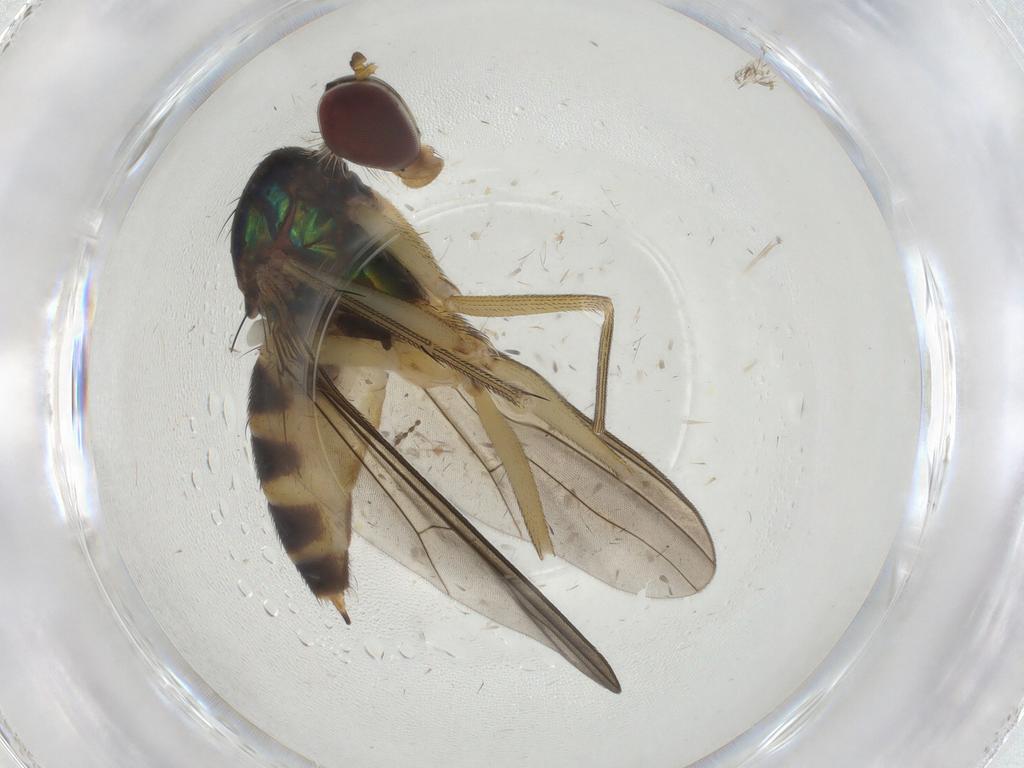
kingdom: Animalia
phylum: Arthropoda
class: Insecta
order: Diptera
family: Dolichopodidae
